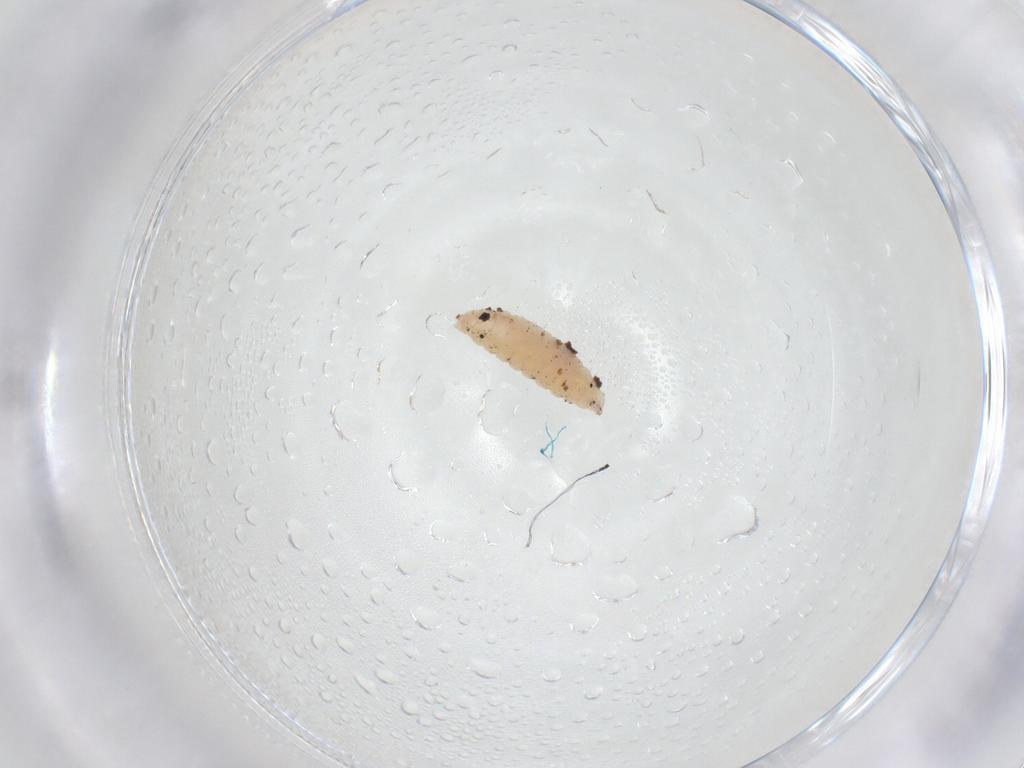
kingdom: Animalia
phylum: Arthropoda
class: Insecta
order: Diptera
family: Cecidomyiidae
